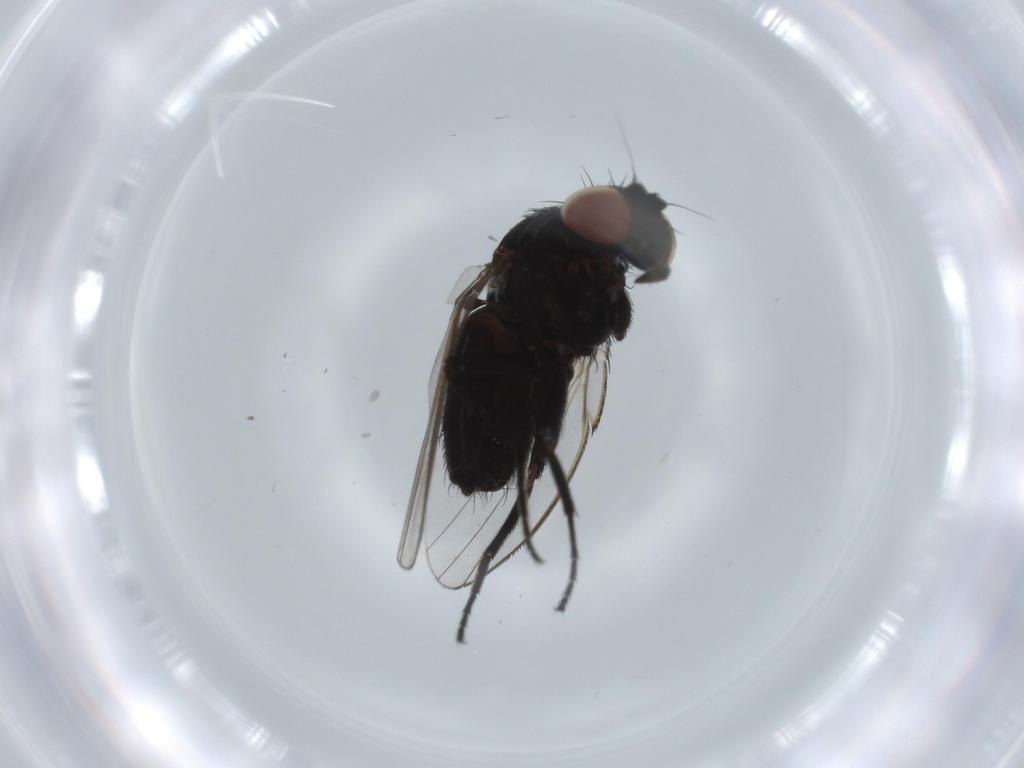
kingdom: Animalia
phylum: Arthropoda
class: Insecta
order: Diptera
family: Phoridae
